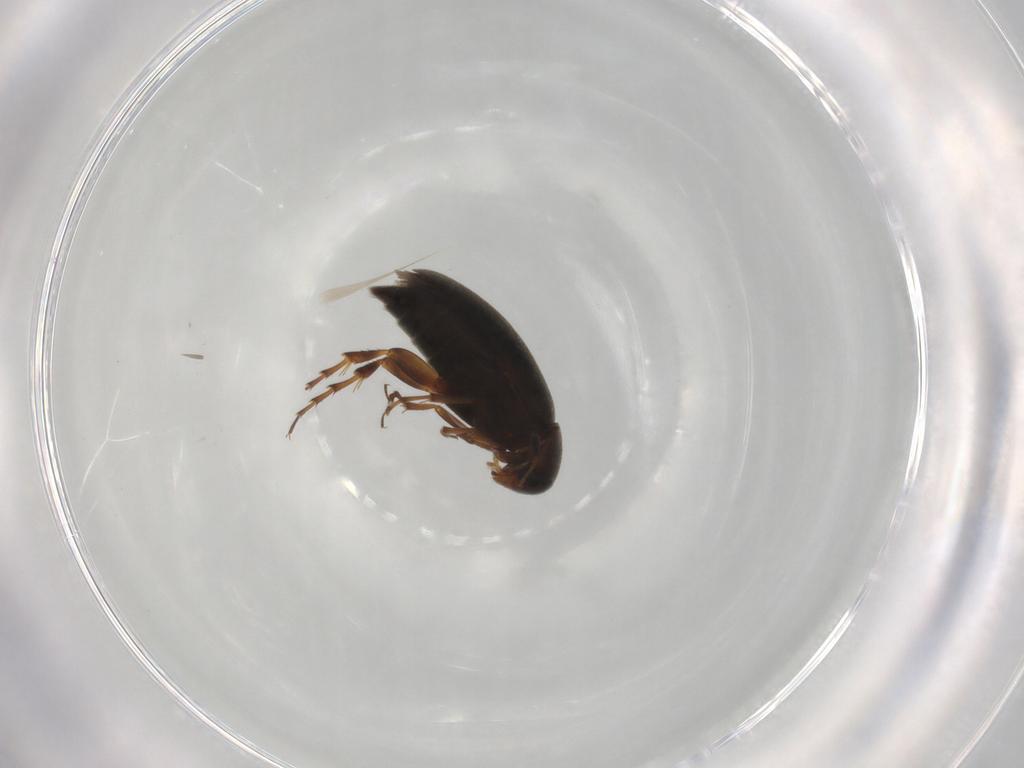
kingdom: Animalia
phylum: Arthropoda
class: Insecta
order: Coleoptera
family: Scraptiidae
